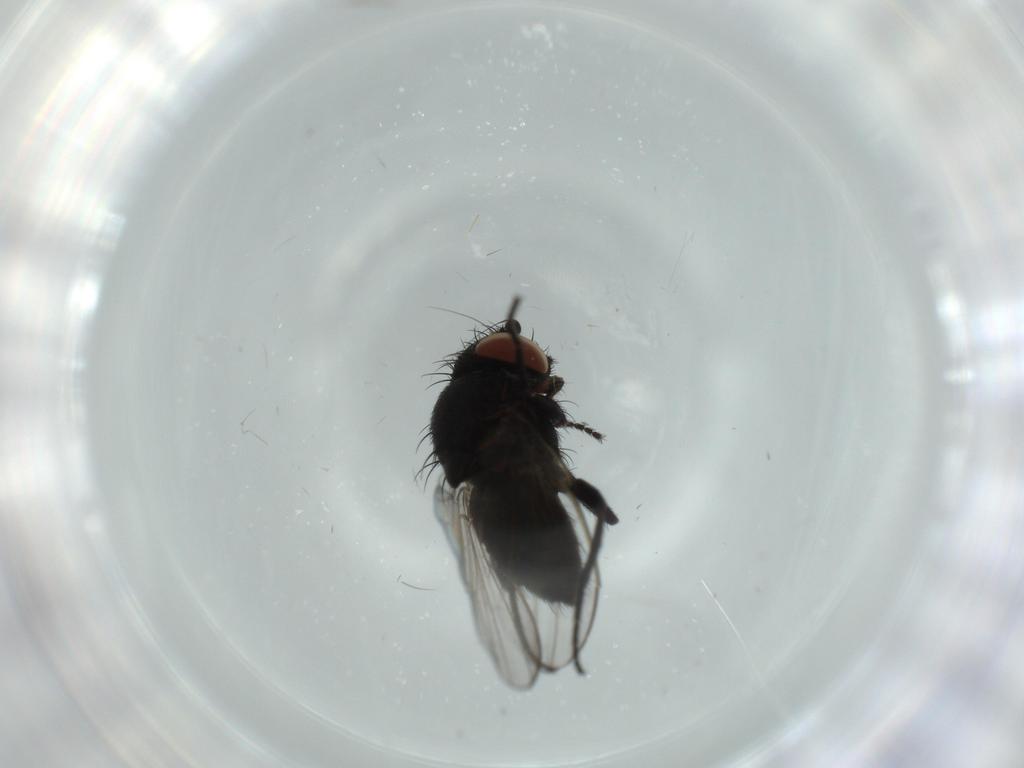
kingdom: Animalia
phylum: Arthropoda
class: Insecta
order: Diptera
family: Milichiidae
